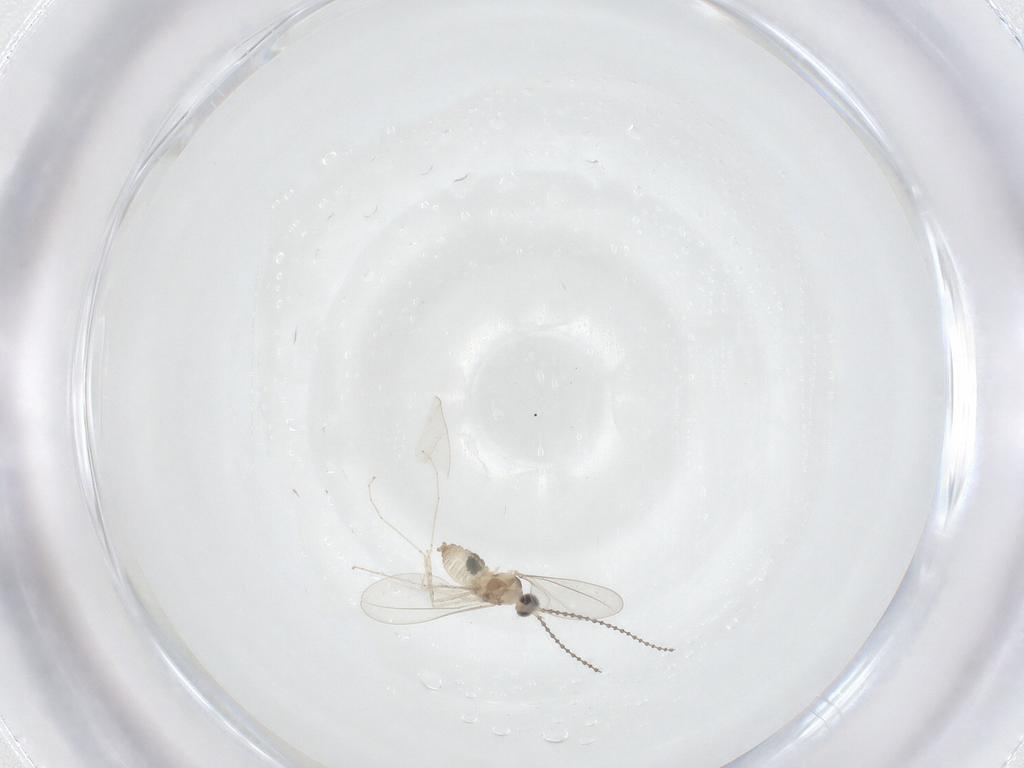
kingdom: Animalia
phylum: Arthropoda
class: Insecta
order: Diptera
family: Cecidomyiidae
